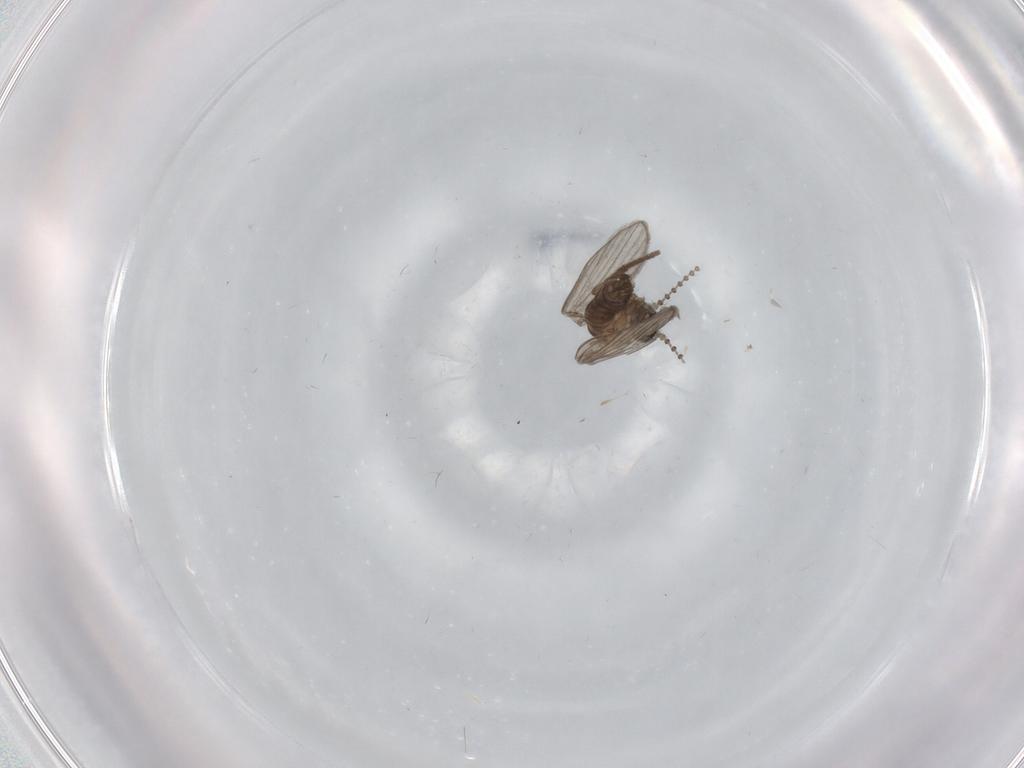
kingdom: Animalia
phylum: Arthropoda
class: Insecta
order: Diptera
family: Psychodidae
